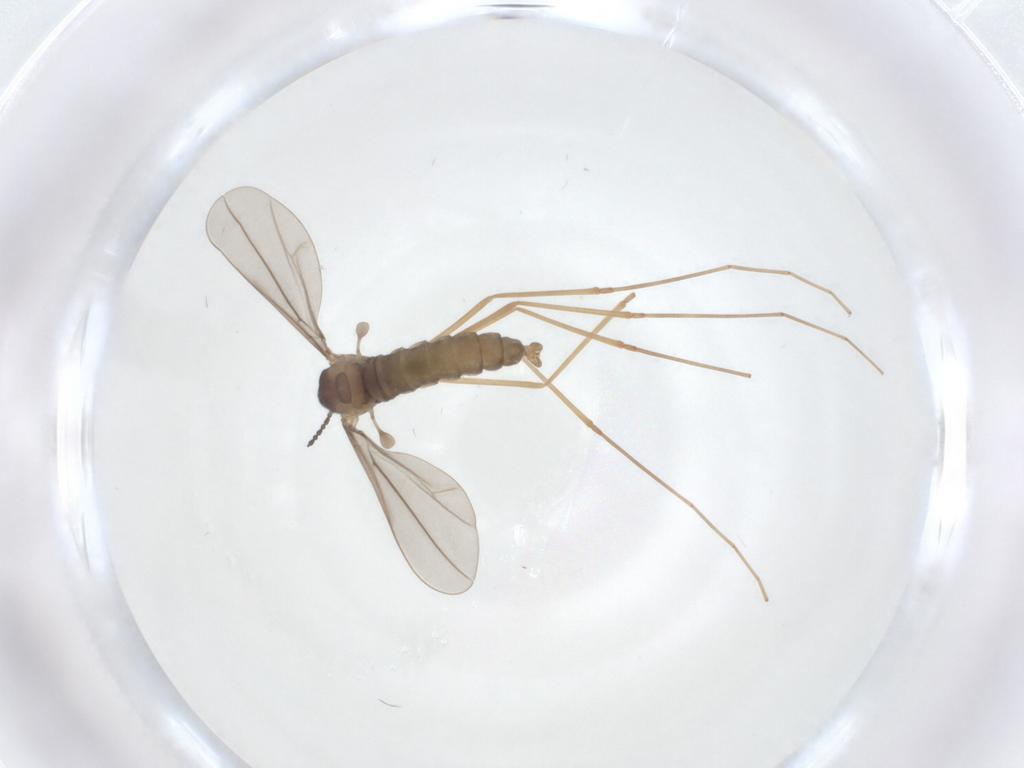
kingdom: Animalia
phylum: Arthropoda
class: Insecta
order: Diptera
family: Cecidomyiidae
